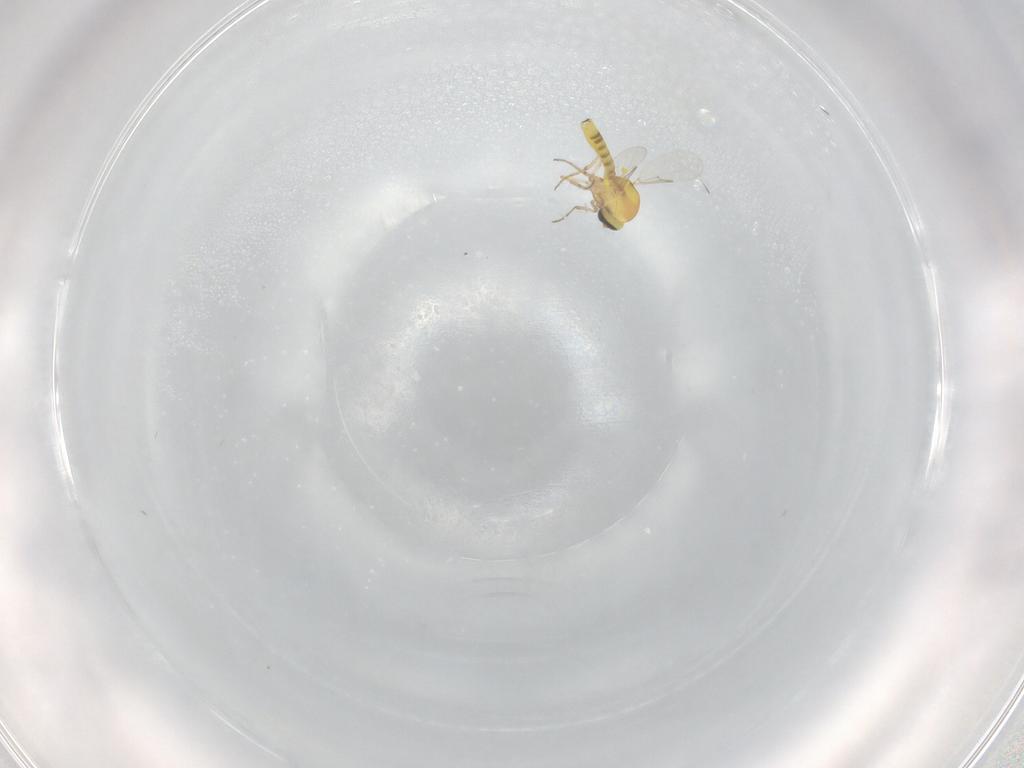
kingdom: Animalia
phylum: Arthropoda
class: Insecta
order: Diptera
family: Ceratopogonidae
